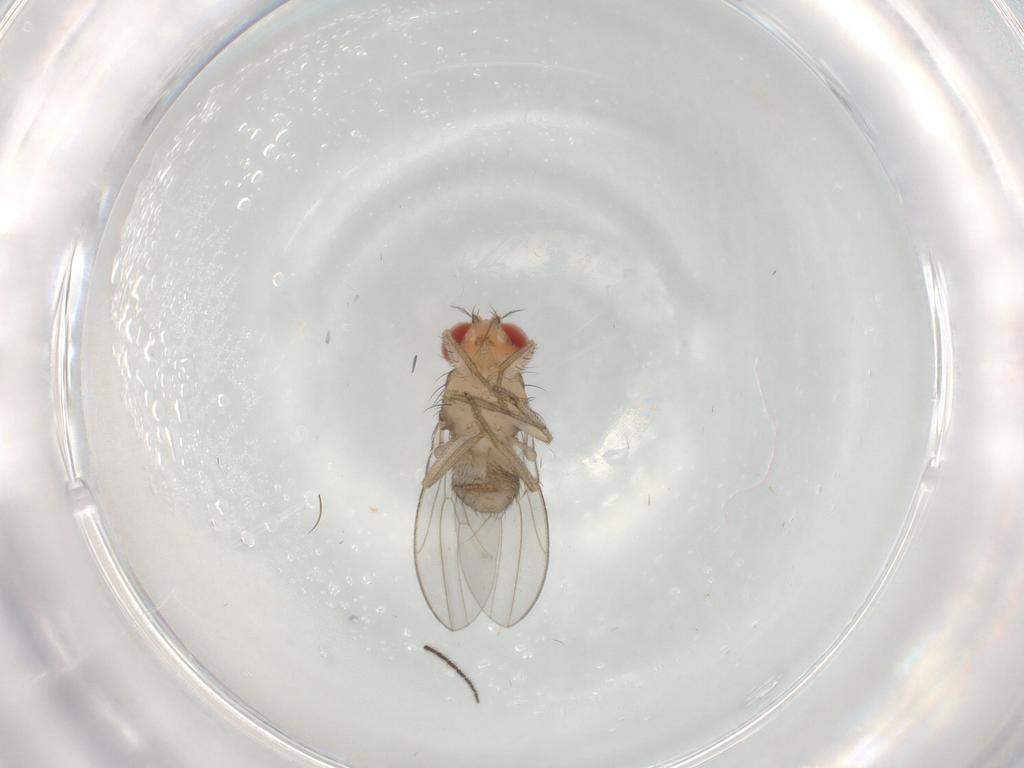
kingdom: Animalia
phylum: Arthropoda
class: Insecta
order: Diptera
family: Drosophilidae
